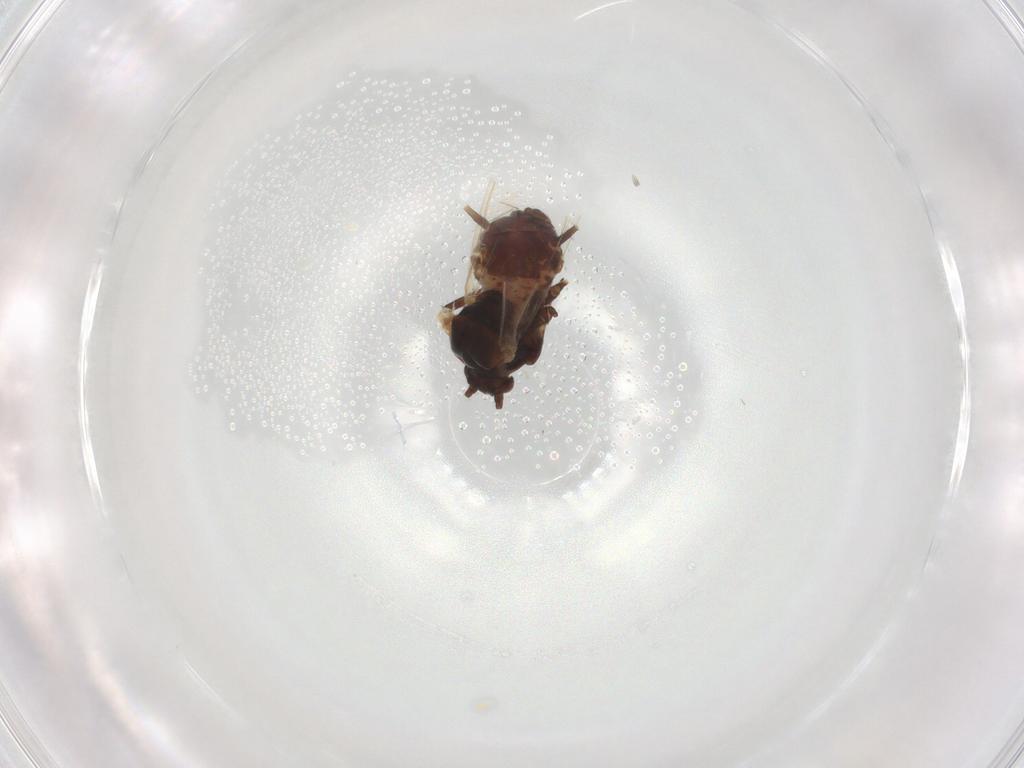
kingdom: Animalia
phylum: Arthropoda
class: Insecta
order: Hemiptera
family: Aphididae
